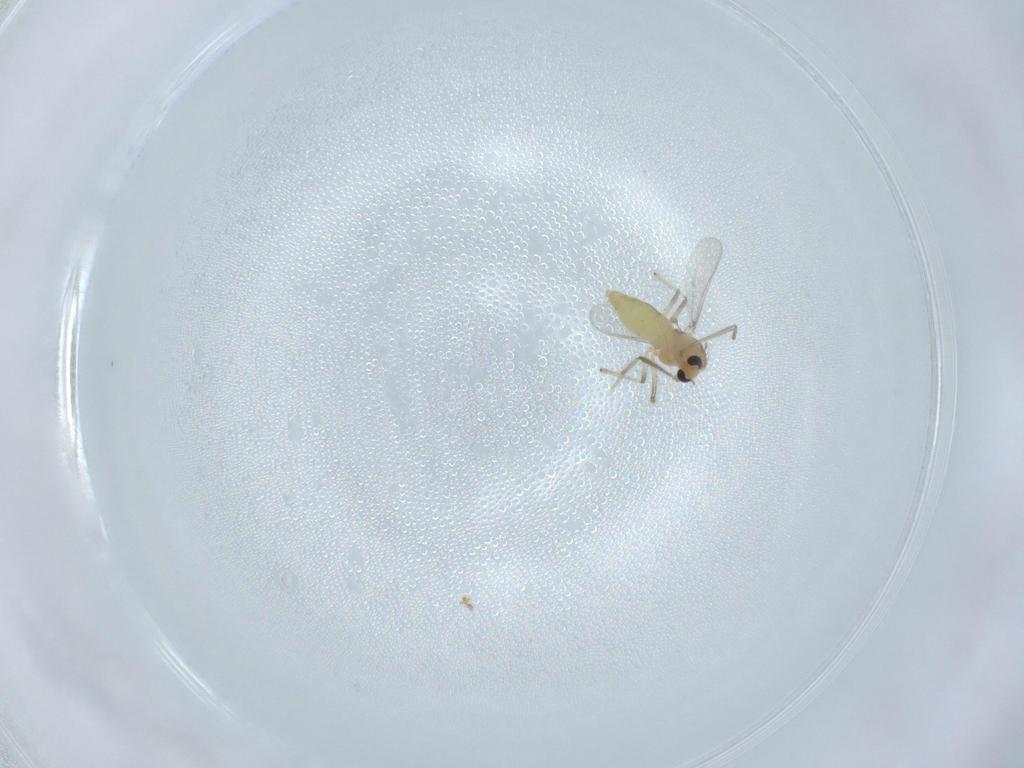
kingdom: Animalia
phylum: Arthropoda
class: Insecta
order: Diptera
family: Chironomidae
